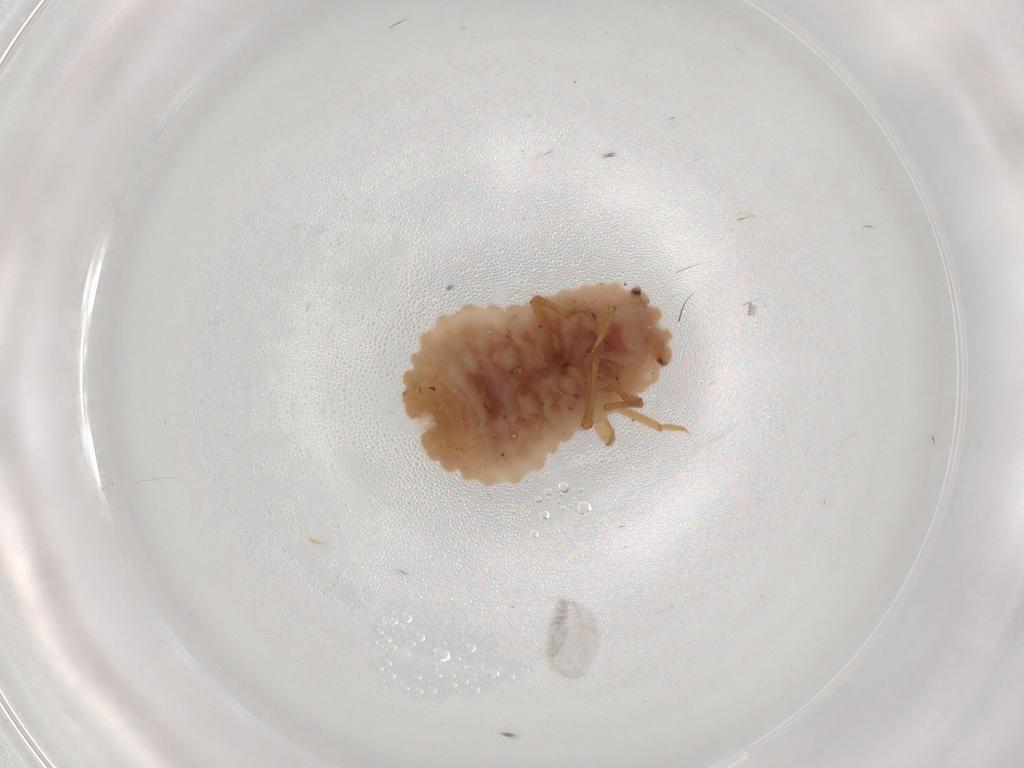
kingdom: Animalia
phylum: Arthropoda
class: Insecta
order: Hemiptera
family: Coccoidea_incertae_sedis
